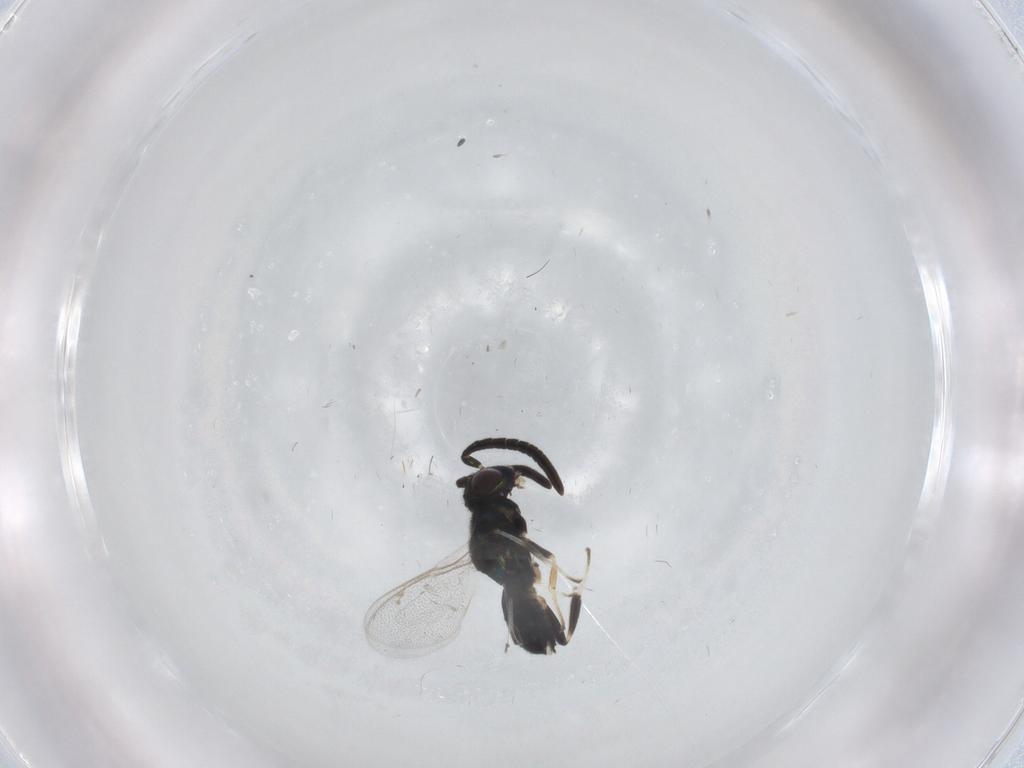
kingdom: Animalia
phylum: Arthropoda
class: Insecta
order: Hymenoptera
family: Eupelmidae
